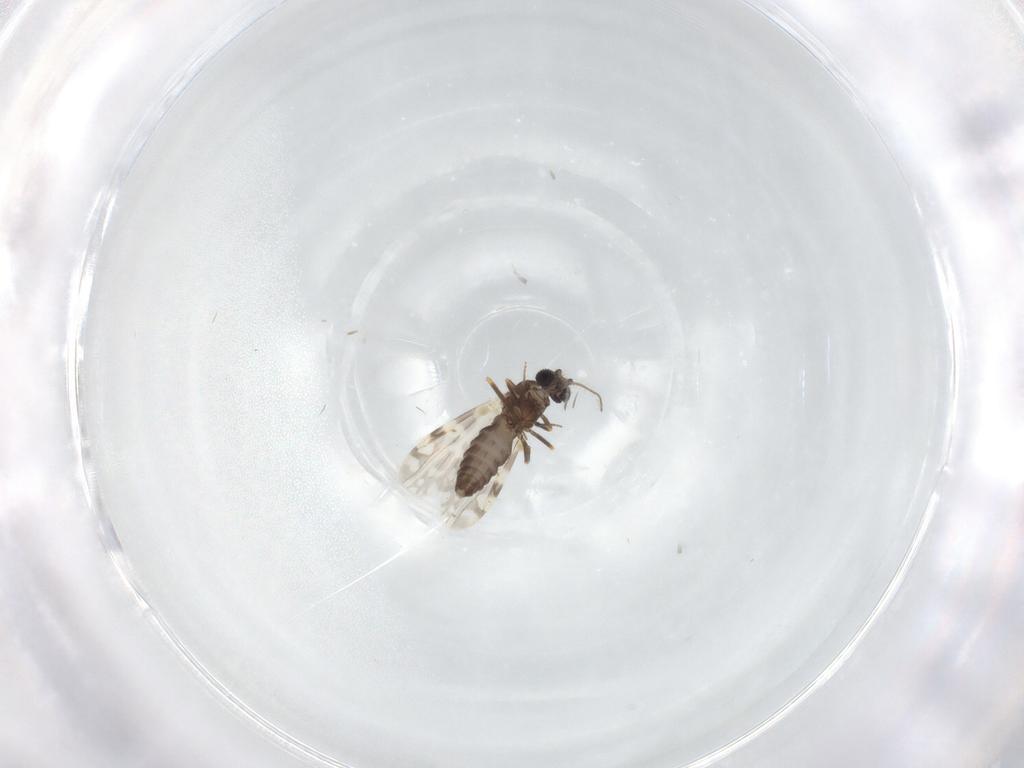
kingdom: Animalia
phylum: Arthropoda
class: Insecta
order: Diptera
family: Ceratopogonidae
